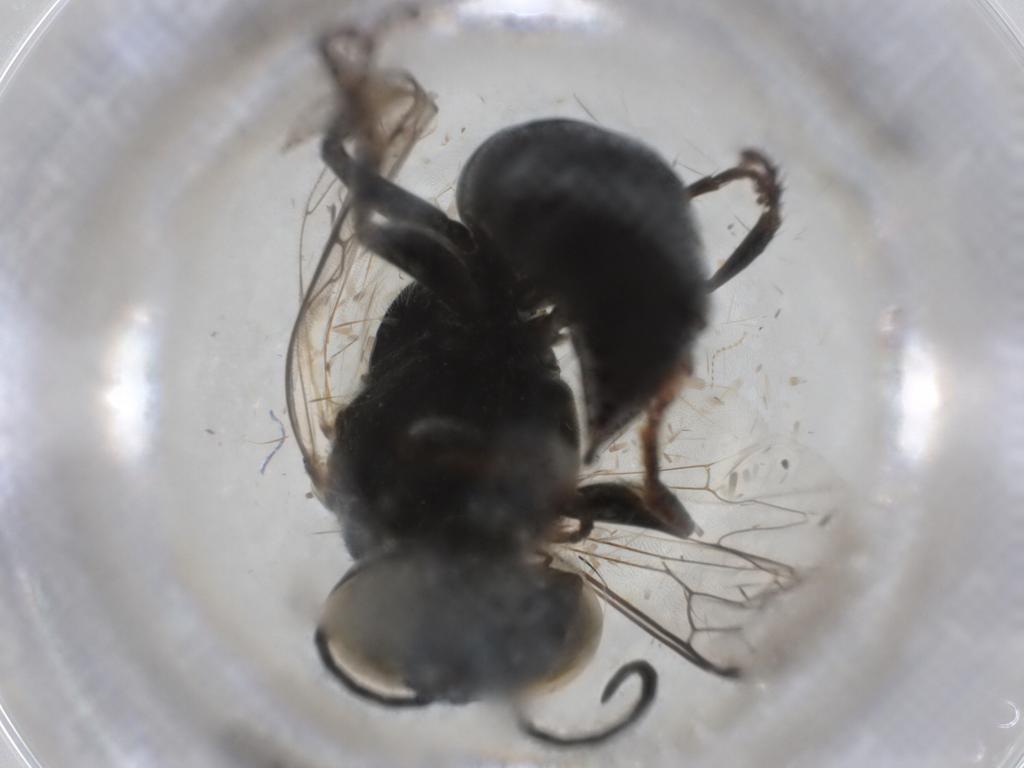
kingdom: Animalia
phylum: Arthropoda
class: Insecta
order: Hymenoptera
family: Crabronidae
